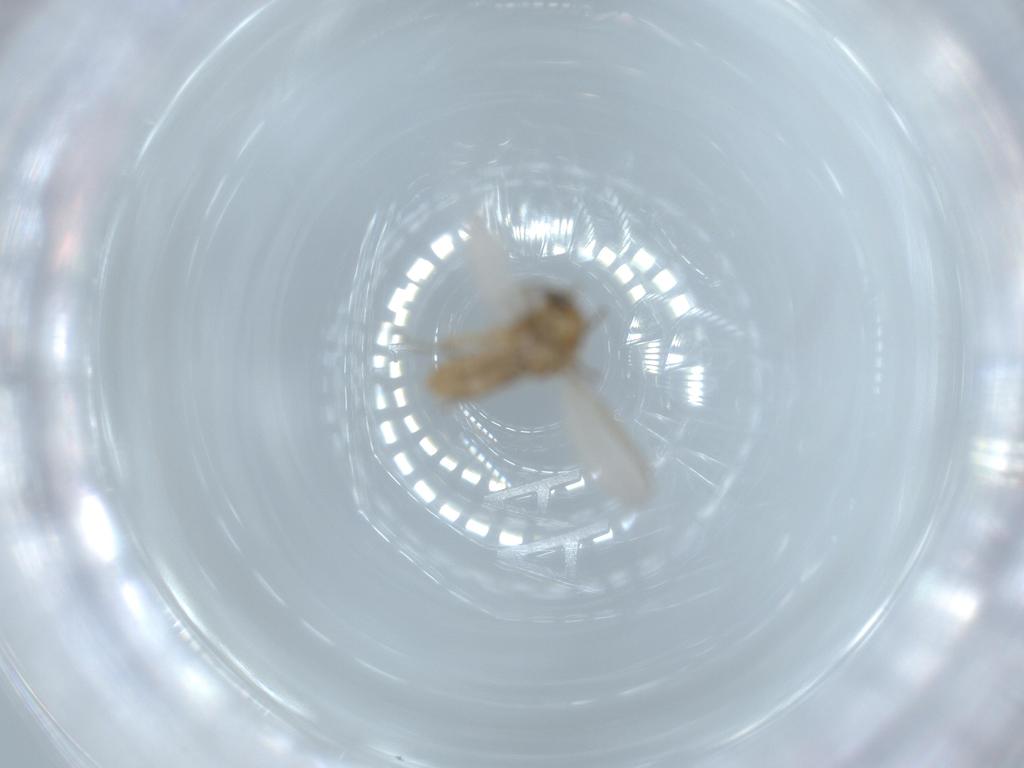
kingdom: Animalia
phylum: Arthropoda
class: Insecta
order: Diptera
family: Chironomidae
